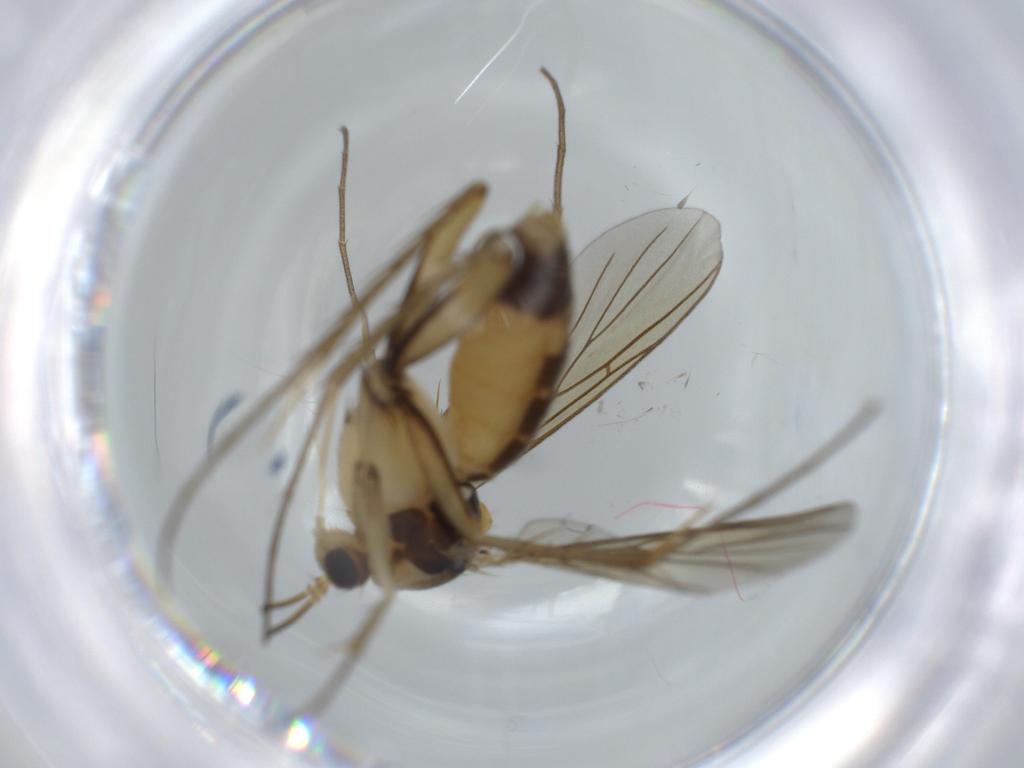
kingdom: Animalia
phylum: Arthropoda
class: Insecta
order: Diptera
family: Mycetophilidae
